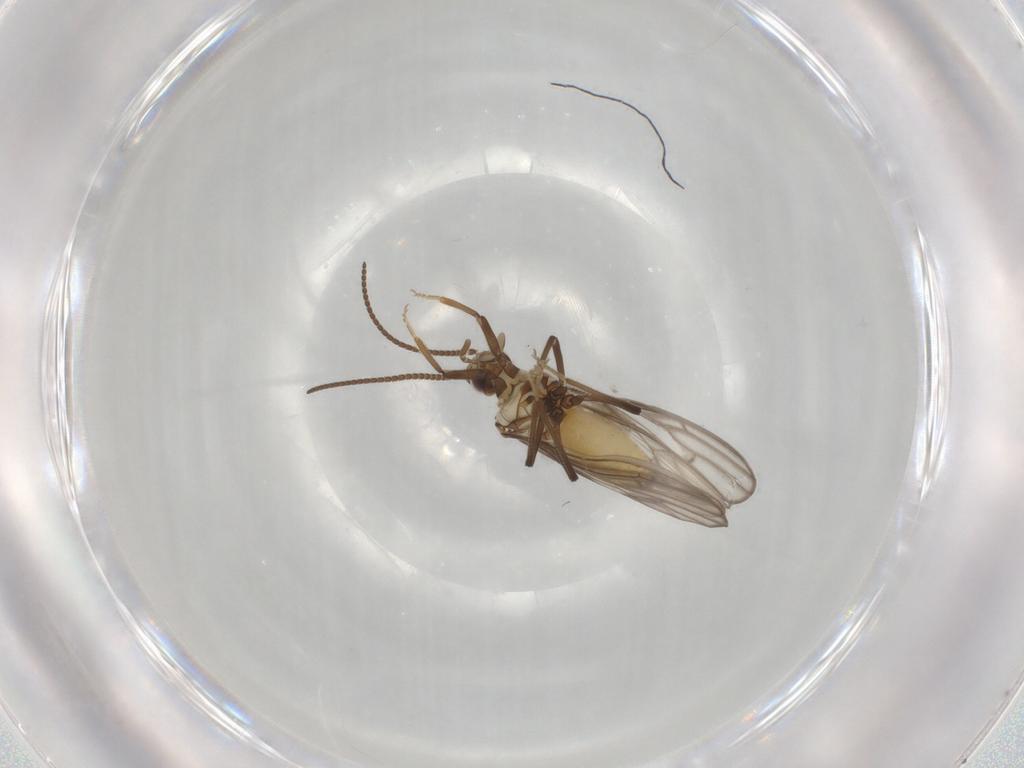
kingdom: Animalia
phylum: Arthropoda
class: Insecta
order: Neuroptera
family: Coniopterygidae
